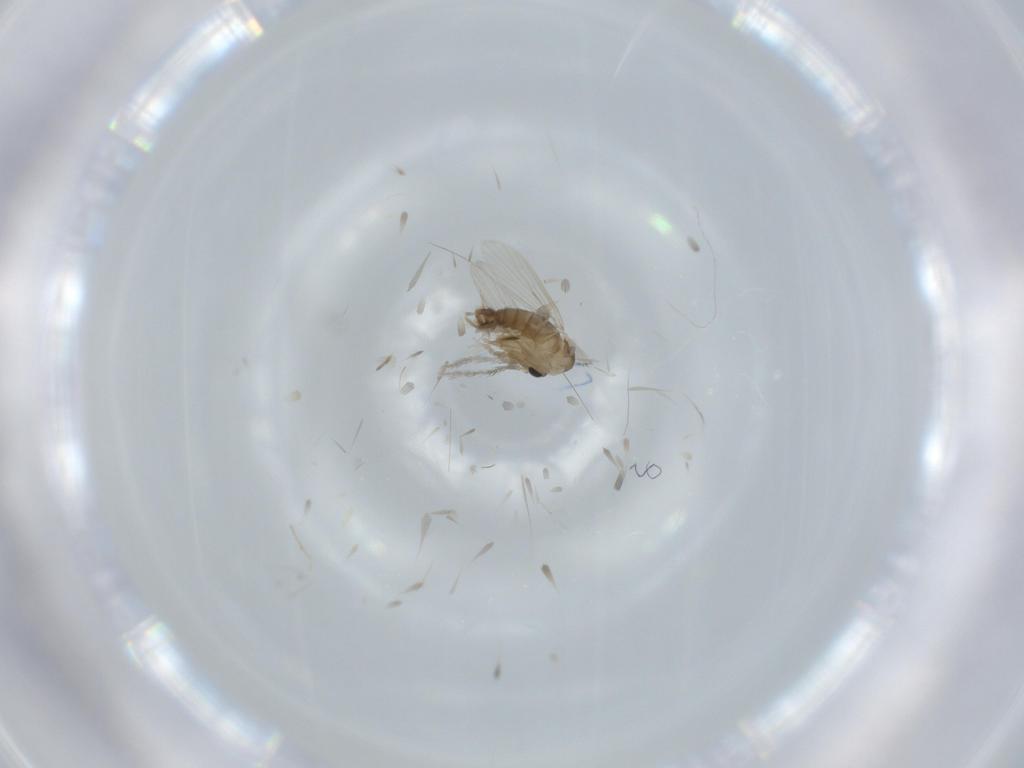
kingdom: Animalia
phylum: Arthropoda
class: Insecta
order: Diptera
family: Psychodidae
